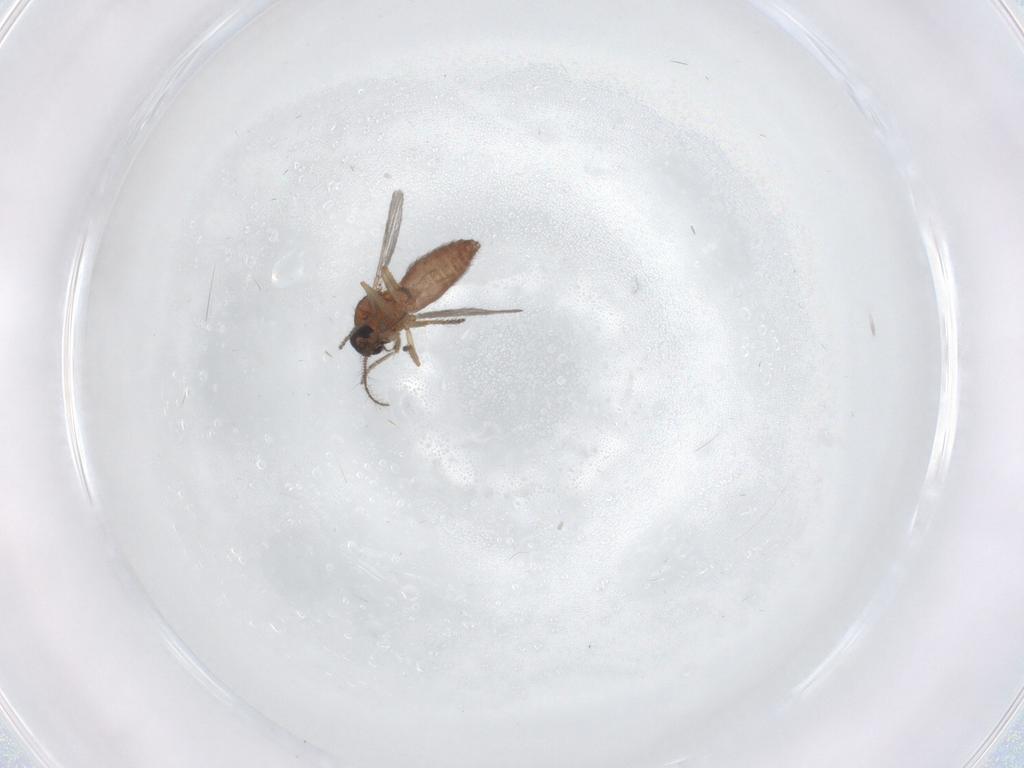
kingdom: Animalia
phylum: Arthropoda
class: Insecta
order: Diptera
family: Ceratopogonidae
